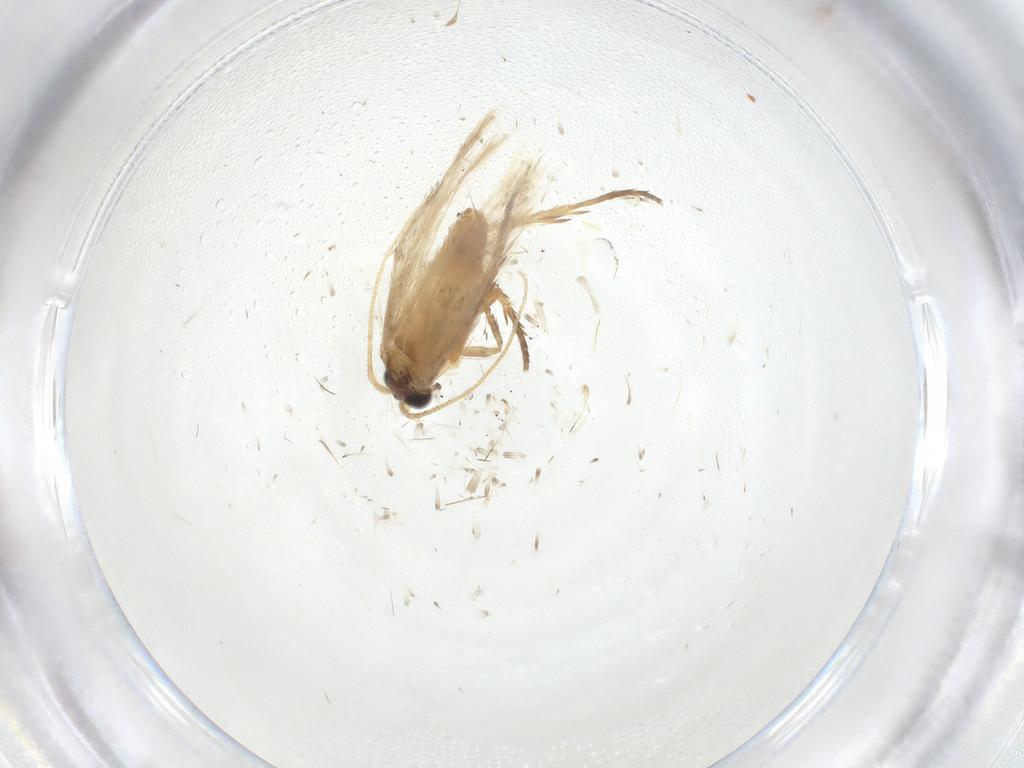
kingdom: Animalia
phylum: Arthropoda
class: Insecta
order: Lepidoptera
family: Nepticulidae
